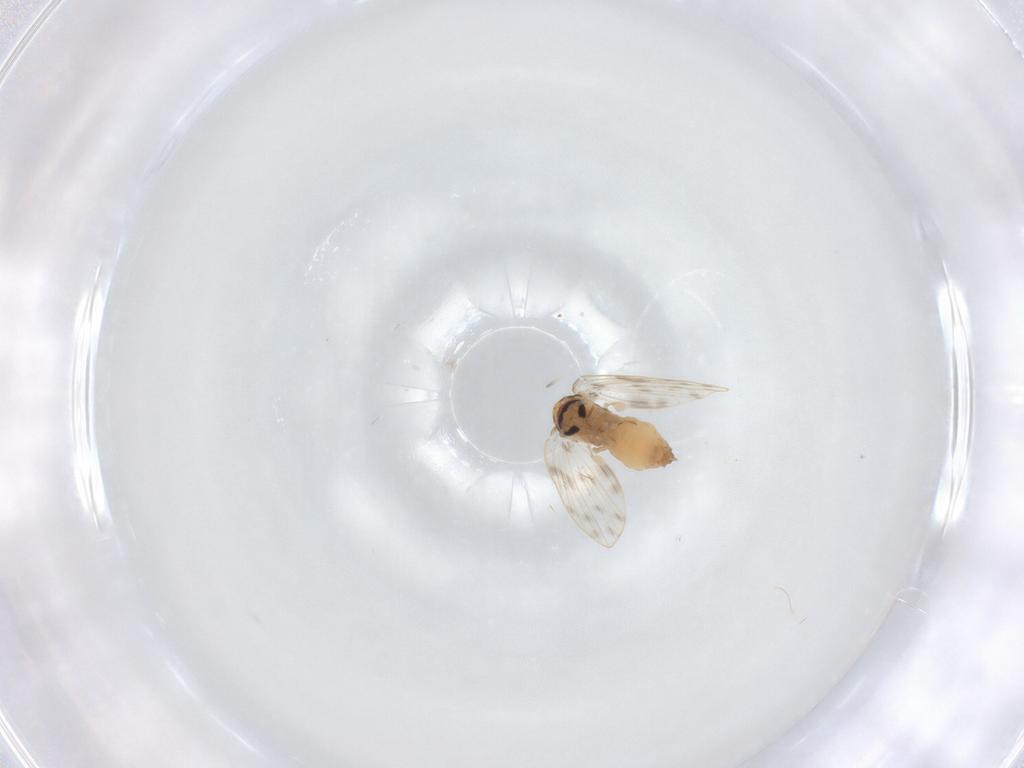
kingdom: Animalia
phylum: Arthropoda
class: Insecta
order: Diptera
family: Psychodidae
